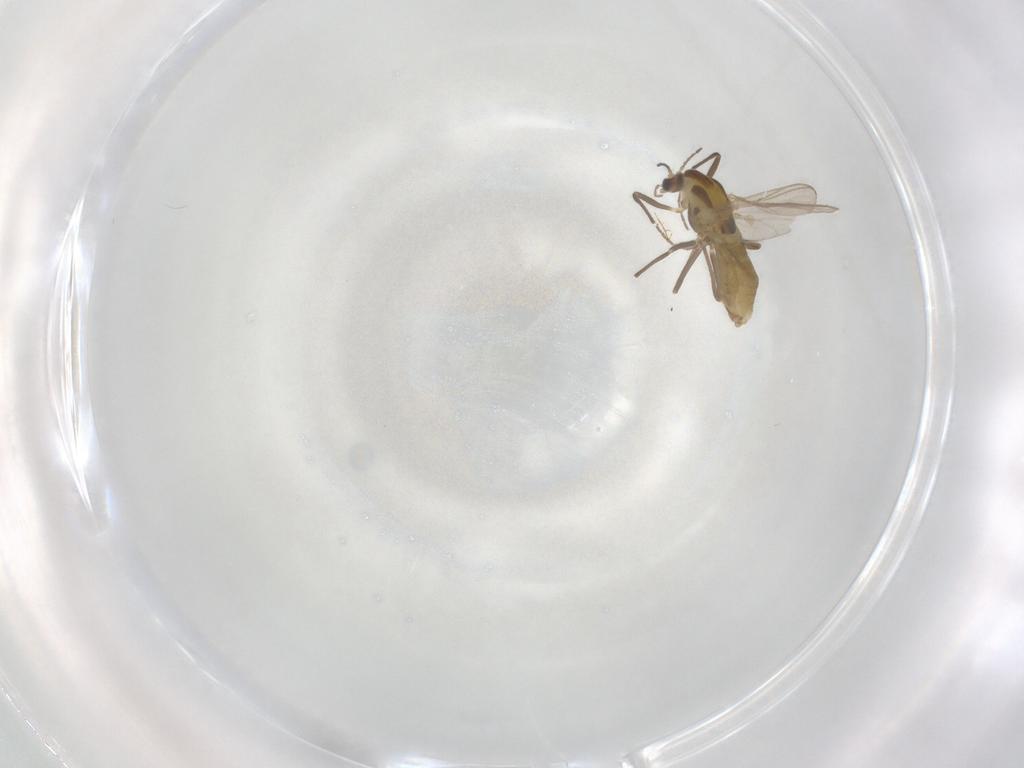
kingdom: Animalia
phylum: Arthropoda
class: Insecta
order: Diptera
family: Chironomidae
